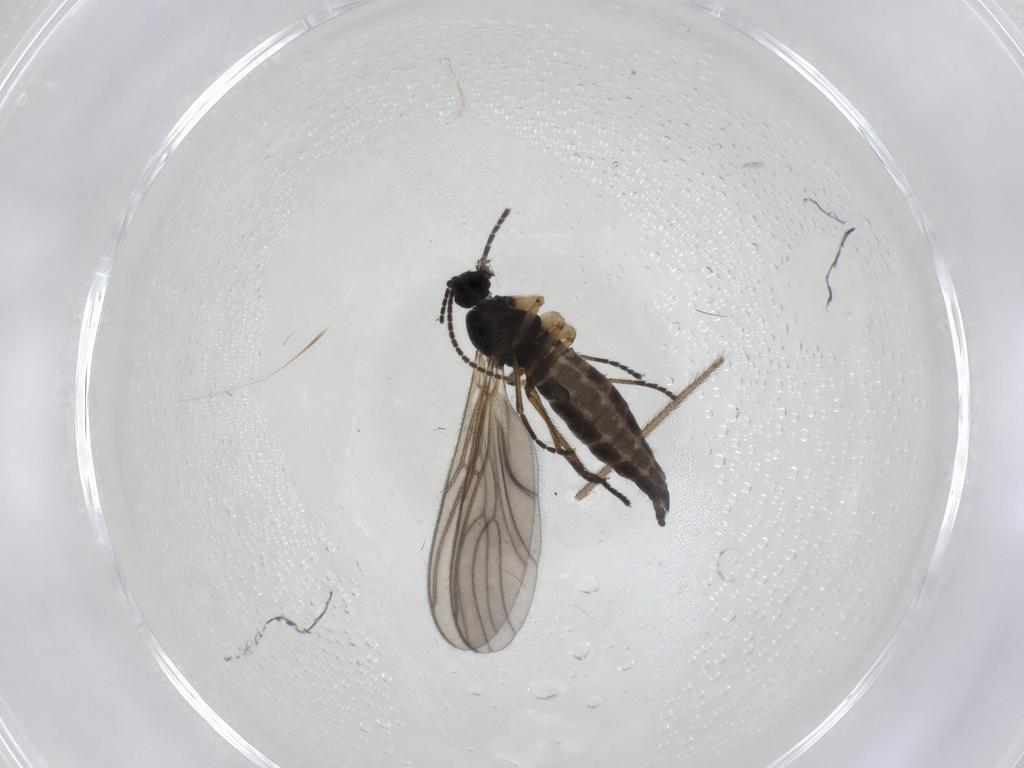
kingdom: Animalia
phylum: Arthropoda
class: Insecta
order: Diptera
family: Sciaridae
